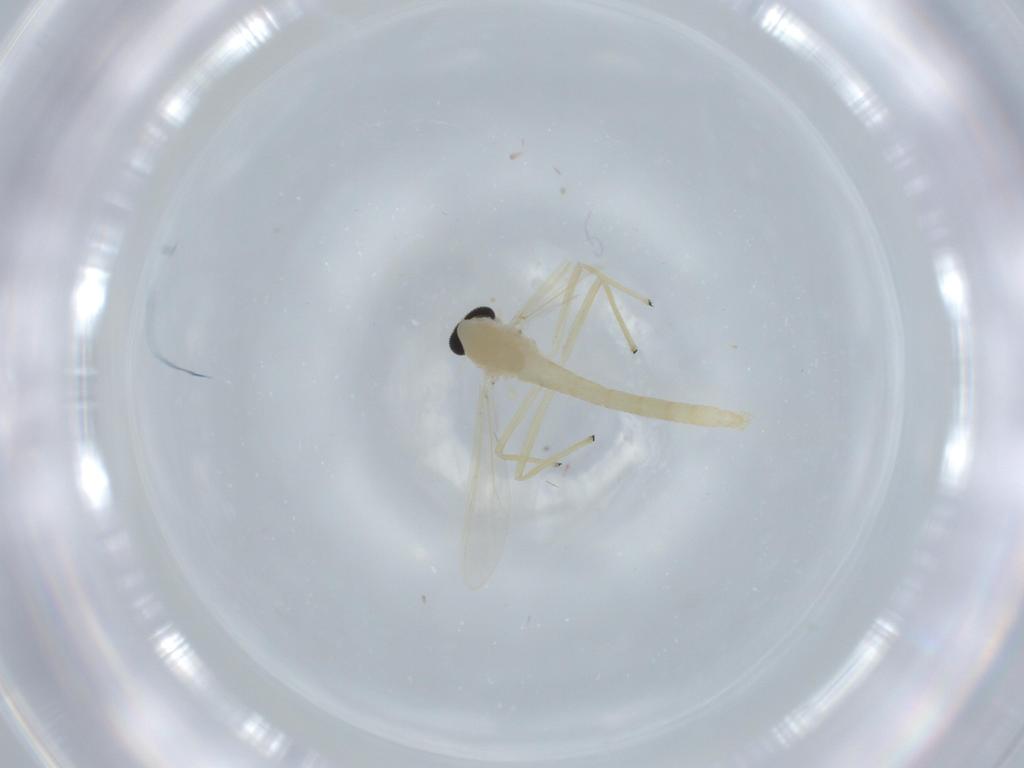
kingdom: Animalia
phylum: Arthropoda
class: Insecta
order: Diptera
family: Chironomidae
